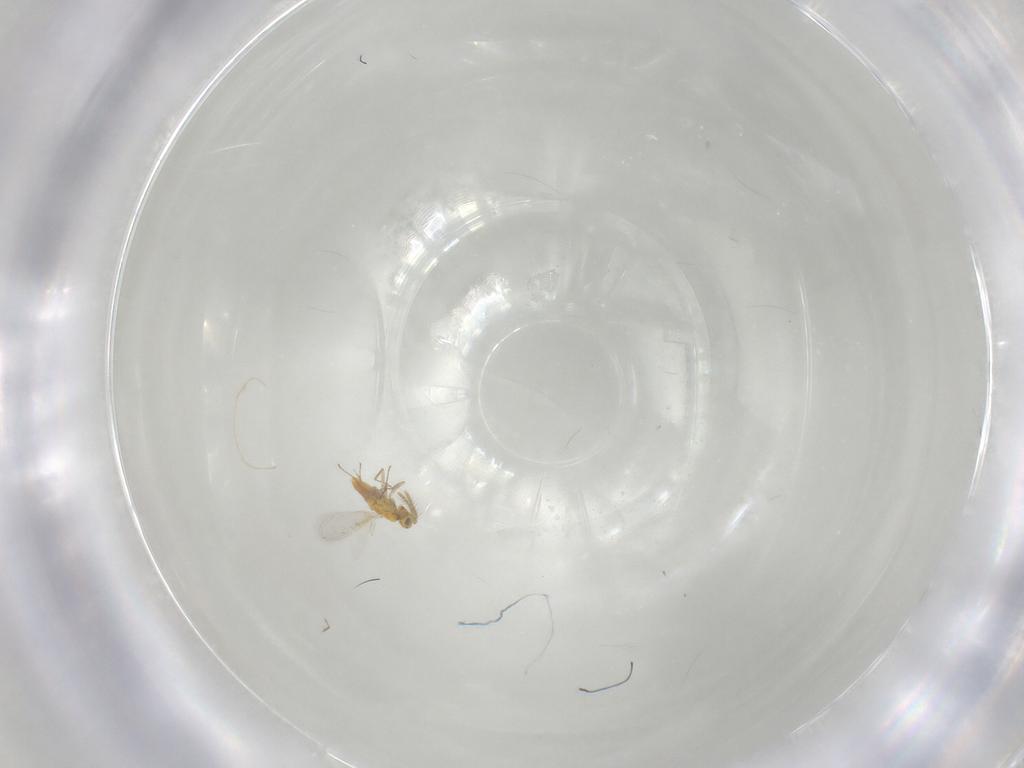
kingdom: Animalia
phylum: Arthropoda
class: Insecta
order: Hymenoptera
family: Aphelinidae
